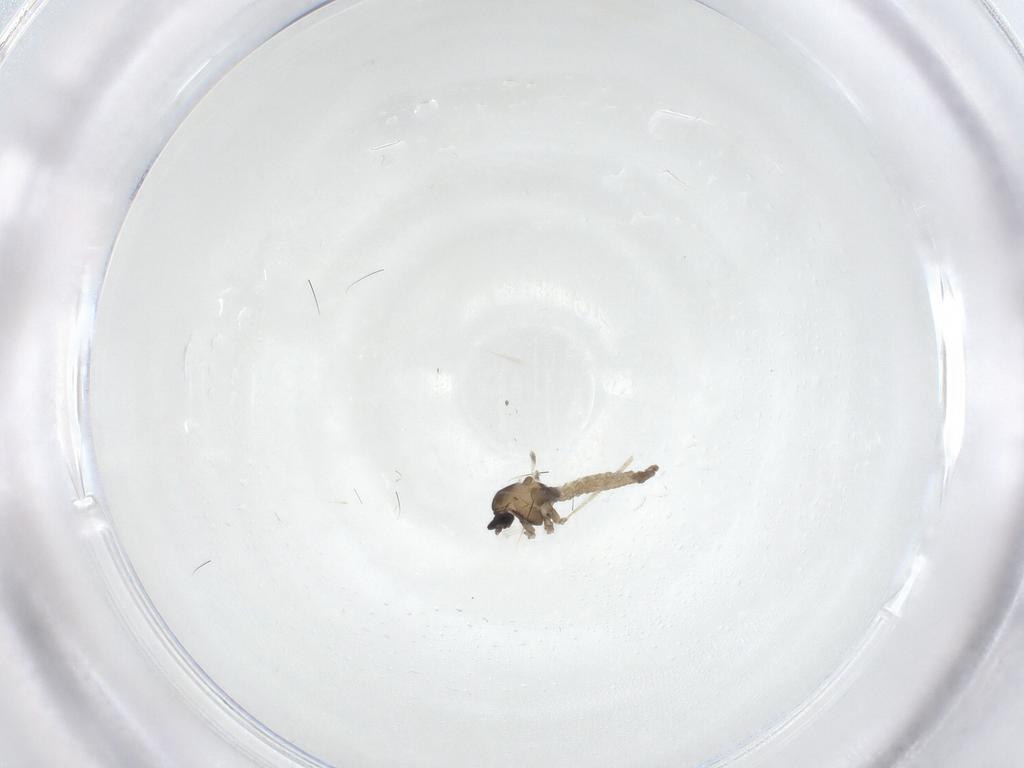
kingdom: Animalia
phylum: Arthropoda
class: Insecta
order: Diptera
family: Cecidomyiidae
